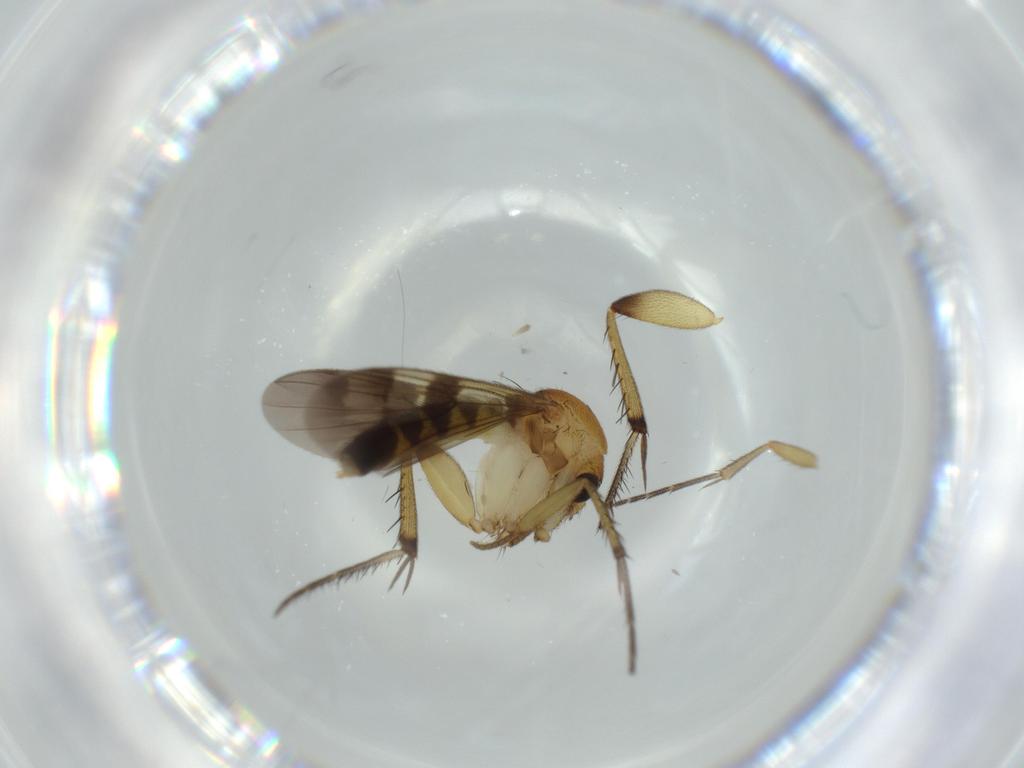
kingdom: Animalia
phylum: Arthropoda
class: Insecta
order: Diptera
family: Mycetophilidae
